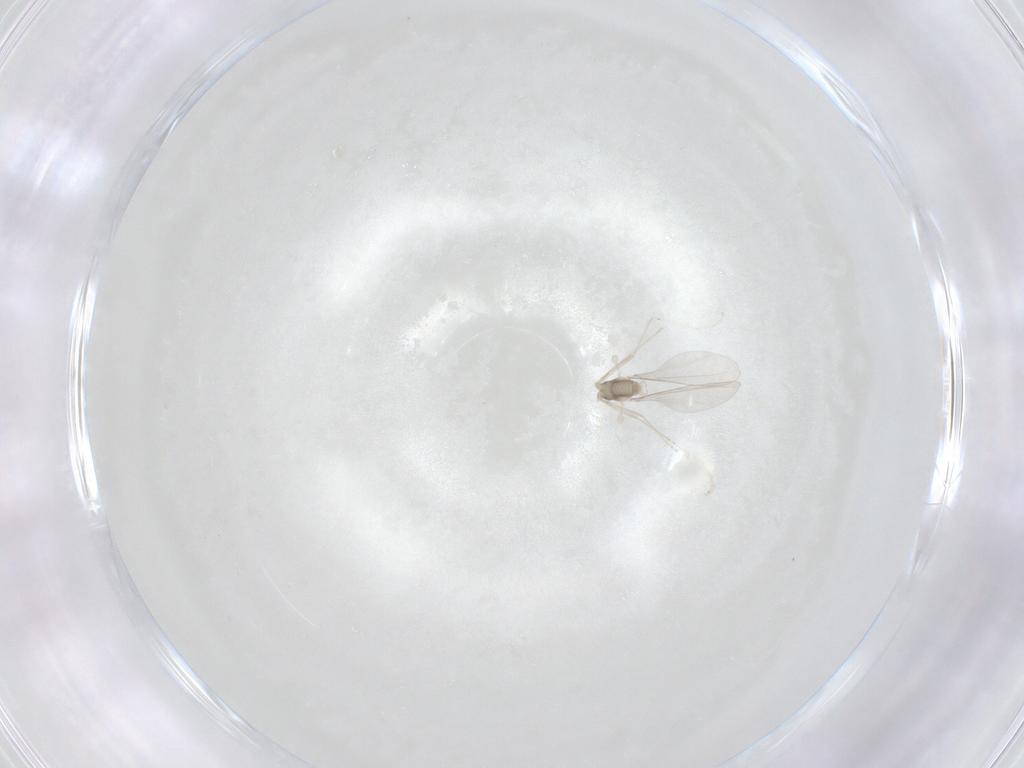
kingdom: Animalia
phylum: Arthropoda
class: Insecta
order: Diptera
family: Cecidomyiidae
